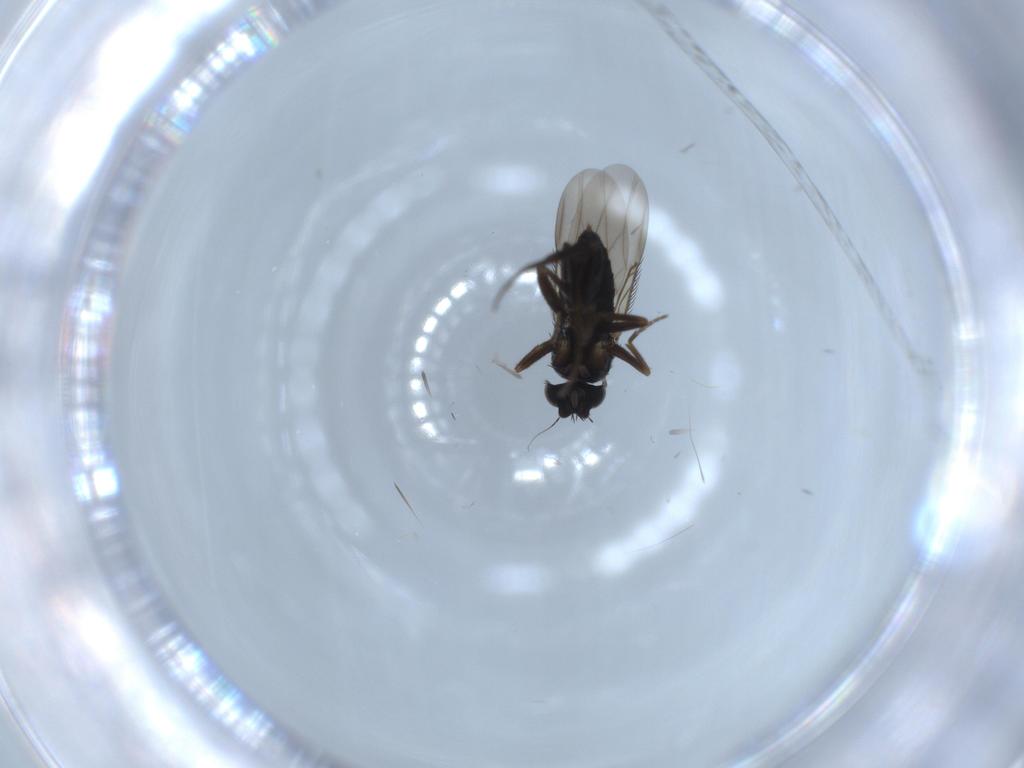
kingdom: Animalia
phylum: Arthropoda
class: Insecta
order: Diptera
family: Phoridae
